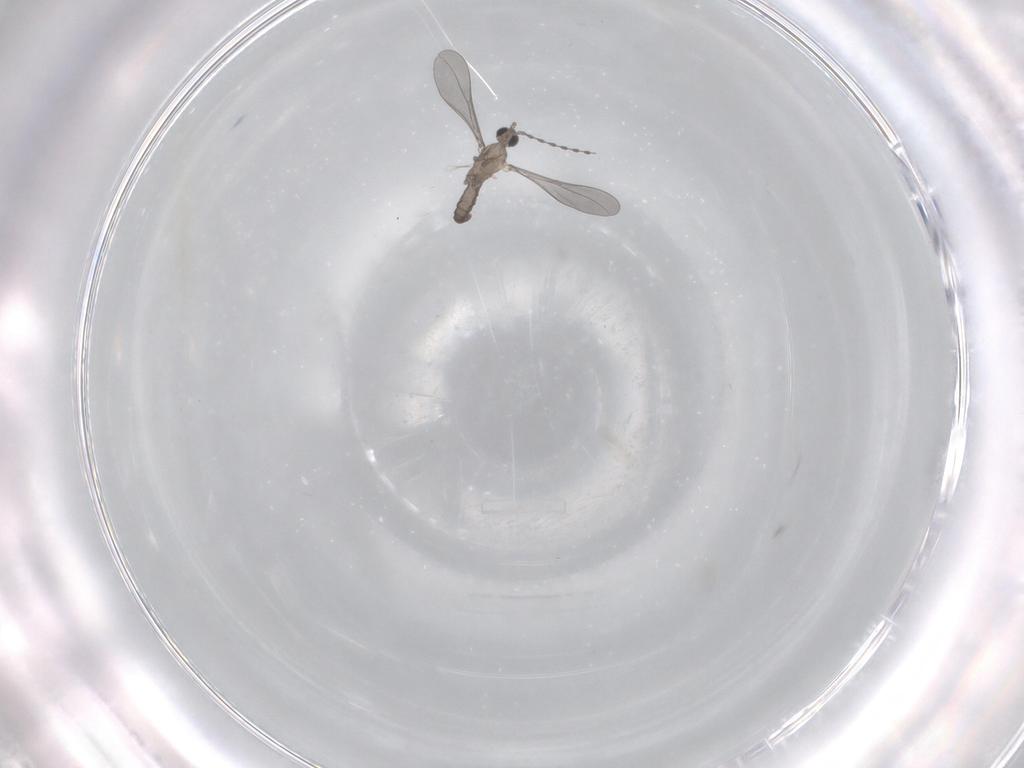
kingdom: Animalia
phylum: Arthropoda
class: Insecta
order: Diptera
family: Cecidomyiidae
